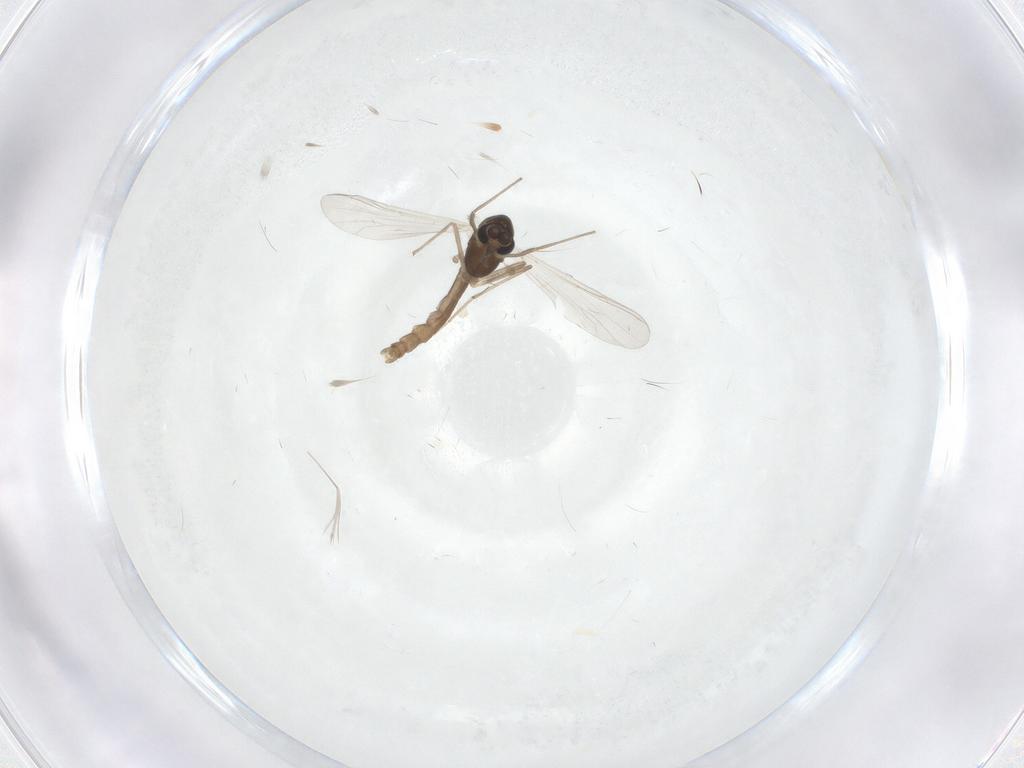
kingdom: Animalia
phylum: Arthropoda
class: Insecta
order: Diptera
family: Chironomidae
